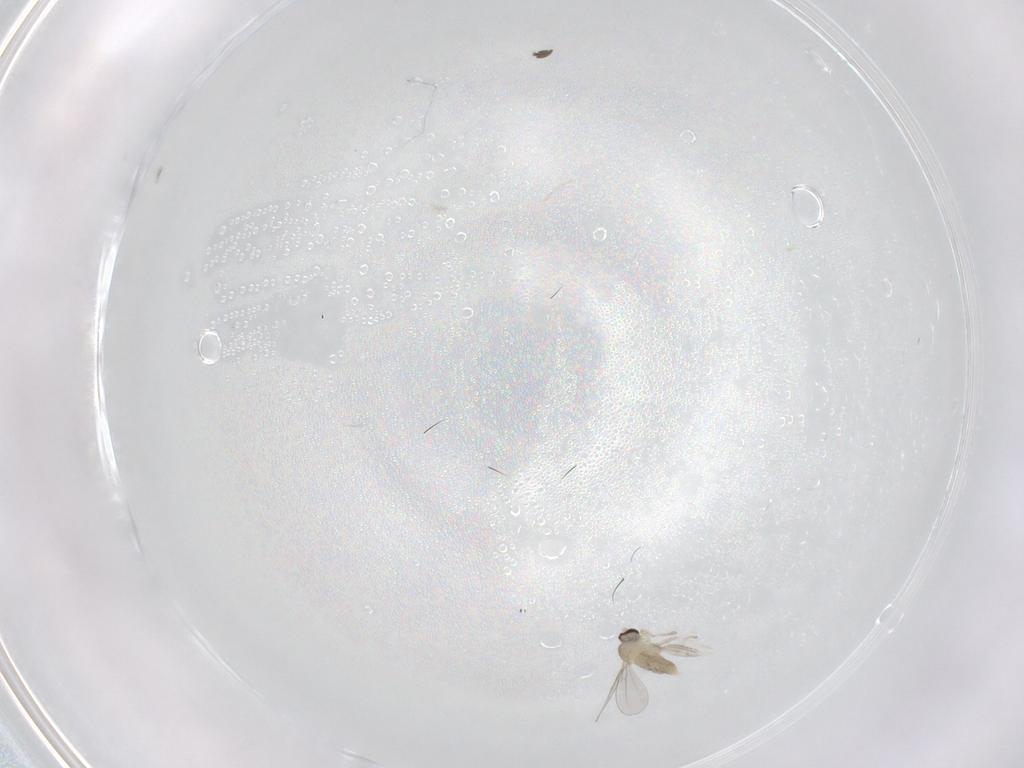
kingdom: Animalia
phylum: Arthropoda
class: Insecta
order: Diptera
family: Cecidomyiidae
